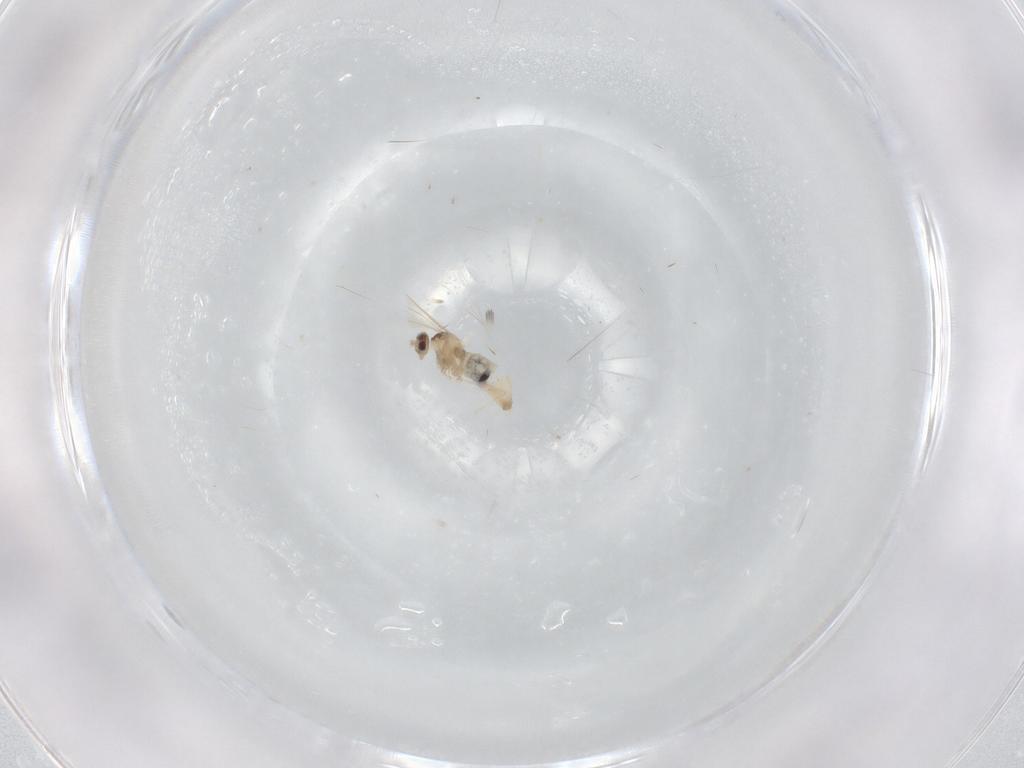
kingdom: Animalia
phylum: Arthropoda
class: Insecta
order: Diptera
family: Cecidomyiidae
